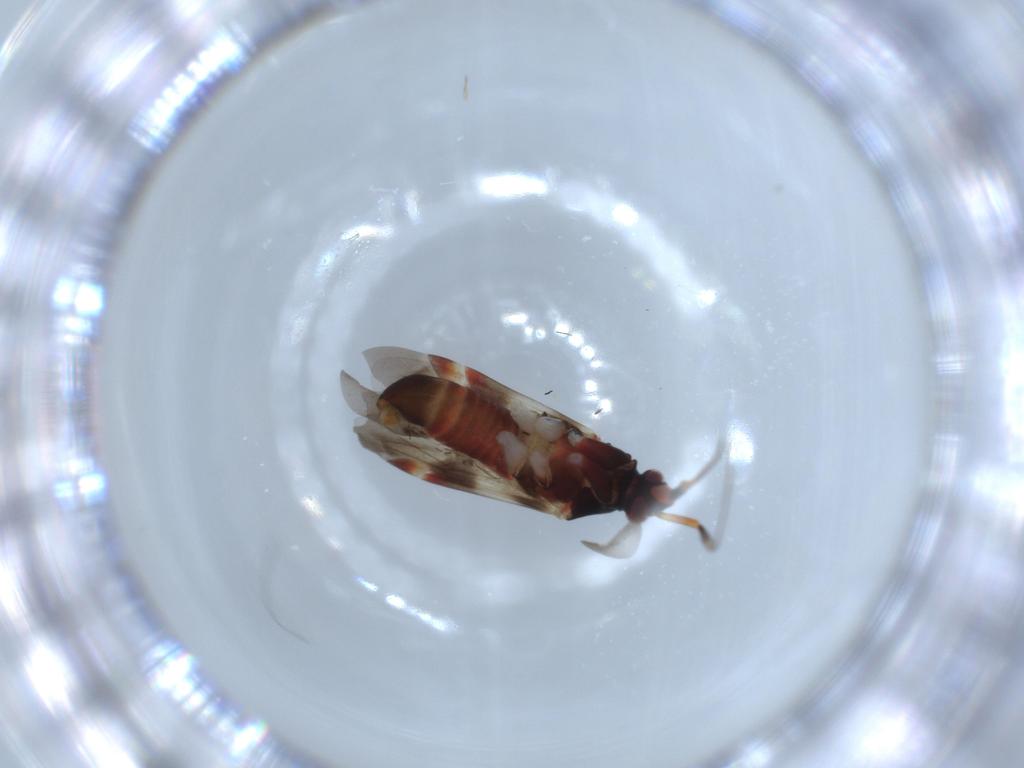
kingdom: Animalia
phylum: Arthropoda
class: Insecta
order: Hemiptera
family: Miridae
